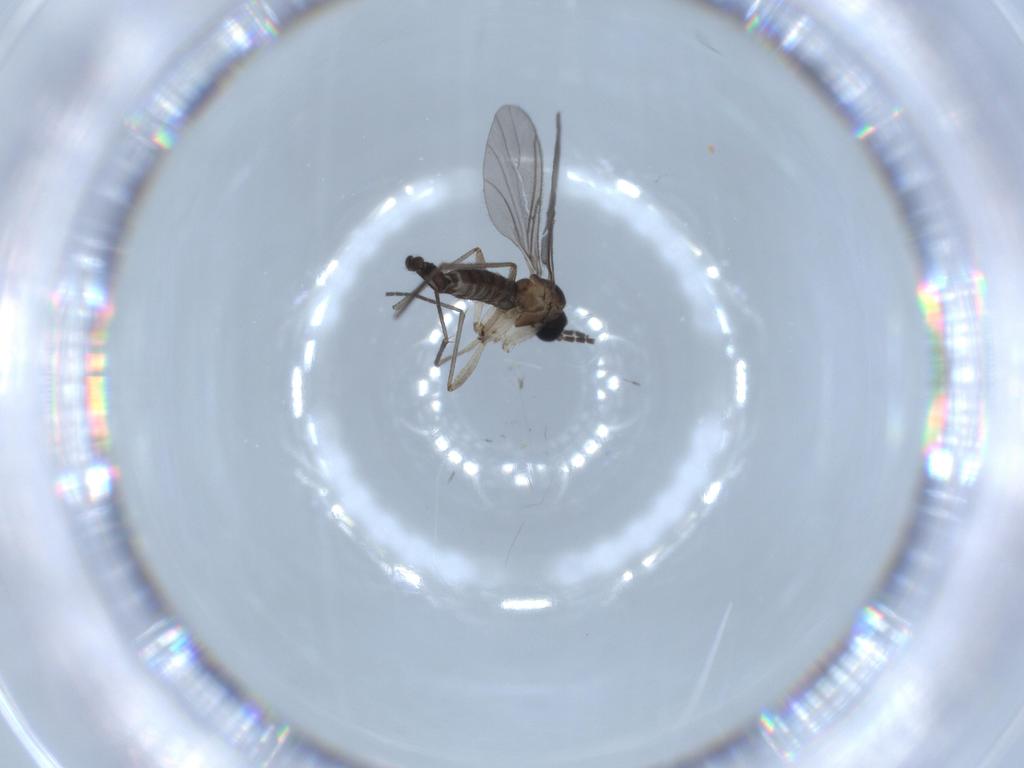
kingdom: Animalia
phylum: Arthropoda
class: Insecta
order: Diptera
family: Sciaridae
